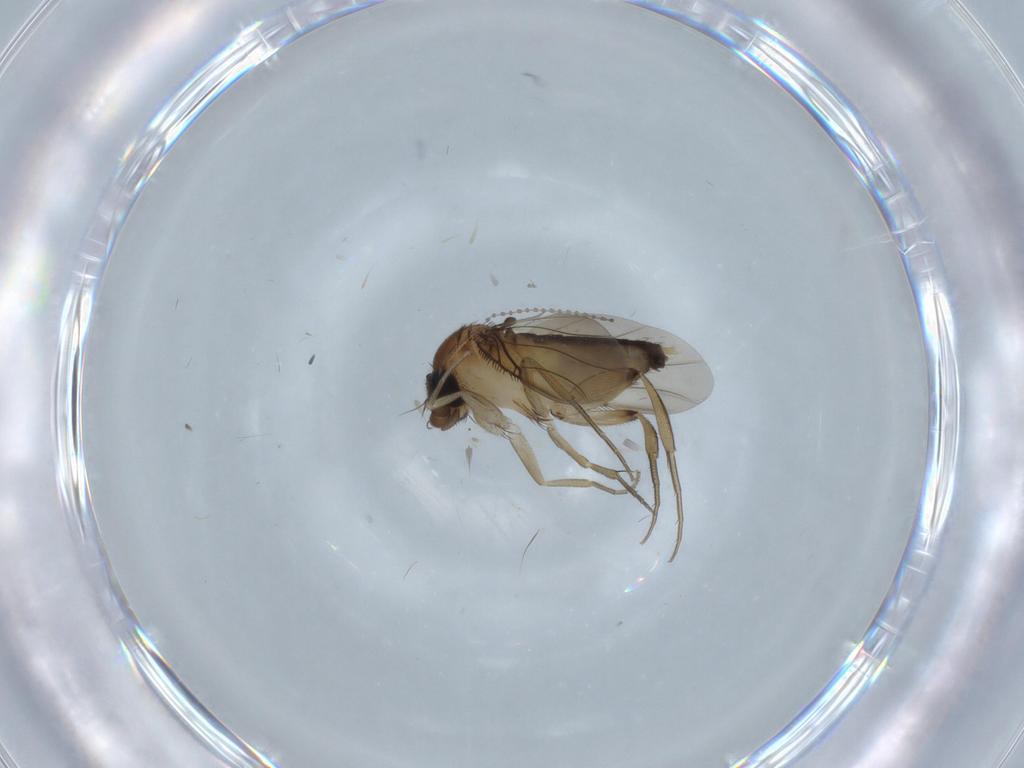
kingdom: Animalia
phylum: Arthropoda
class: Insecta
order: Diptera
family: Phoridae
